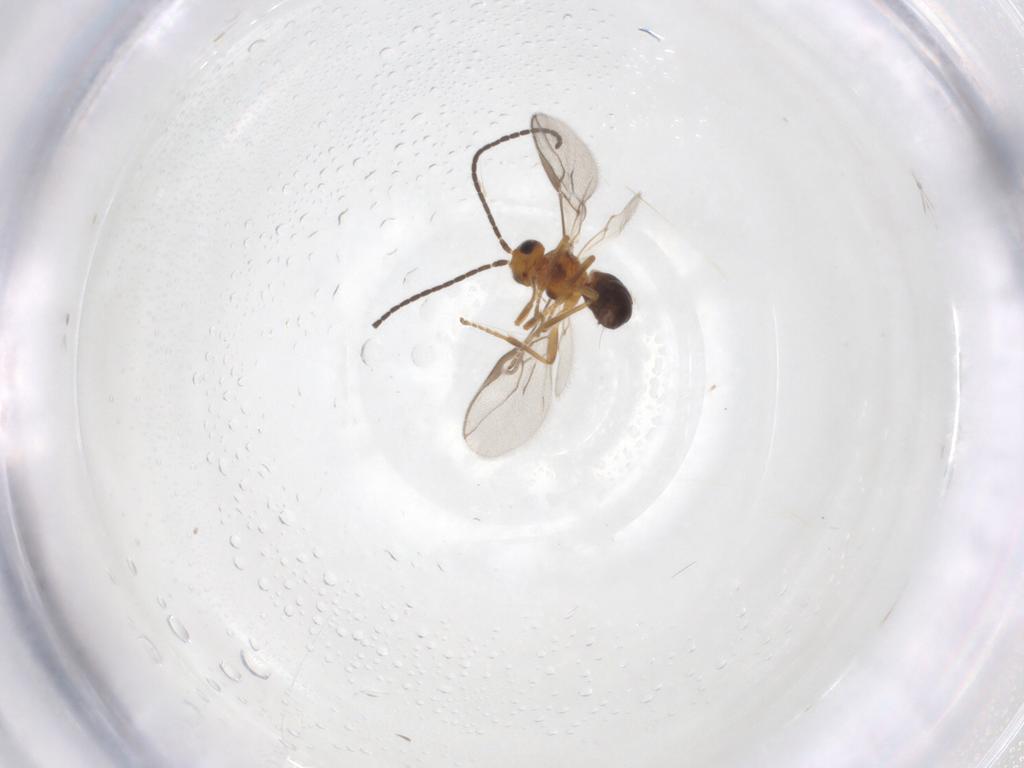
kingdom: Animalia
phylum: Arthropoda
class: Insecta
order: Hymenoptera
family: Braconidae
